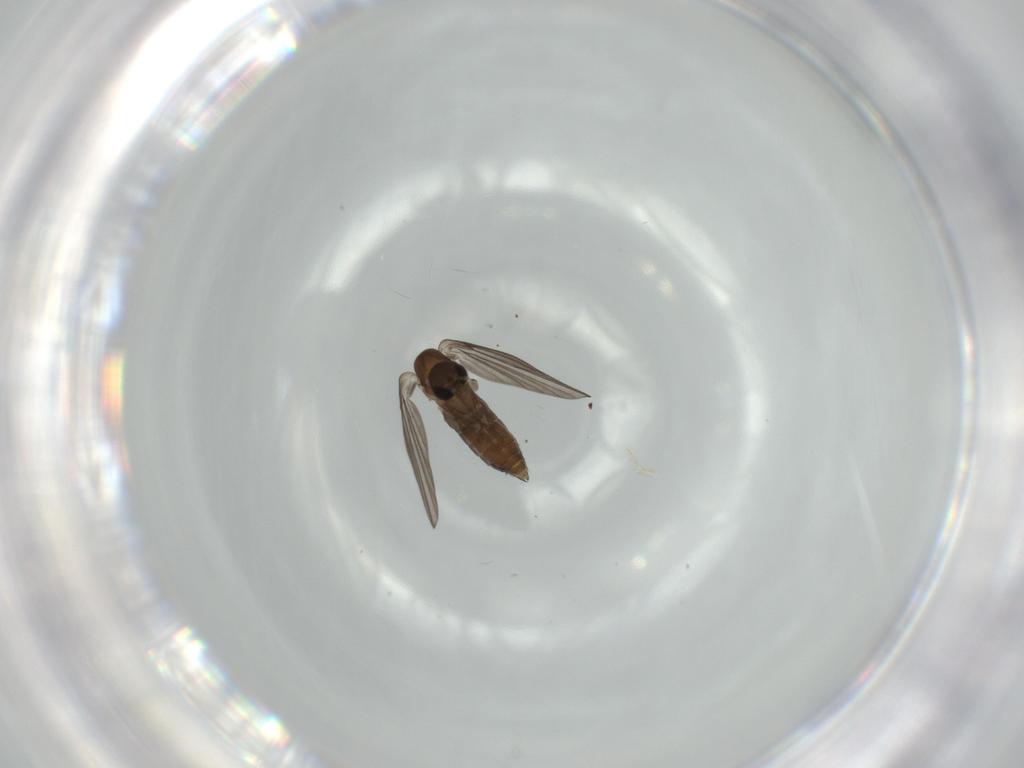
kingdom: Animalia
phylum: Arthropoda
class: Insecta
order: Diptera
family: Psychodidae
